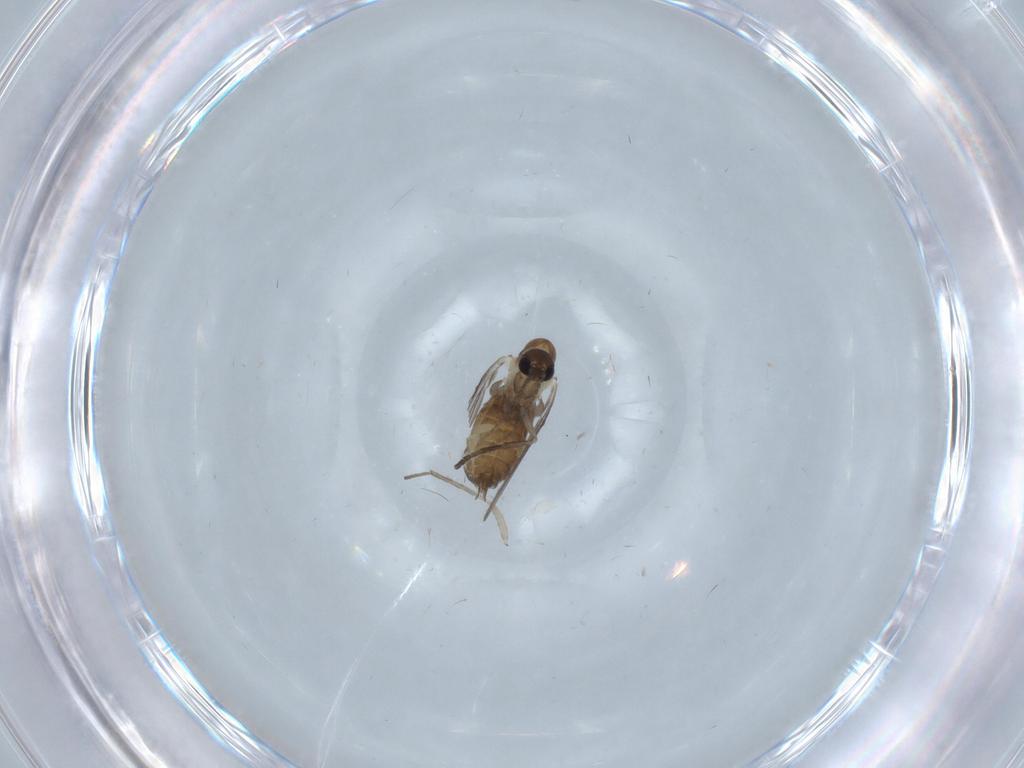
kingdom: Animalia
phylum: Arthropoda
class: Insecta
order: Diptera
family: Psychodidae
